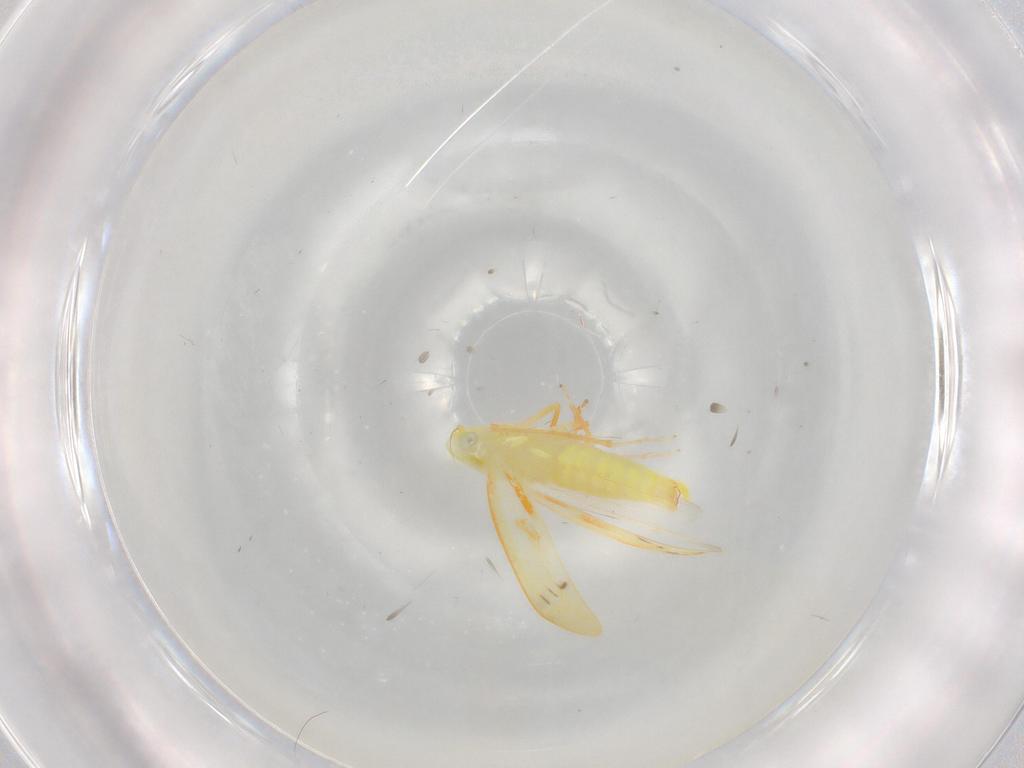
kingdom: Animalia
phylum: Arthropoda
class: Insecta
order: Hemiptera
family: Cicadellidae
